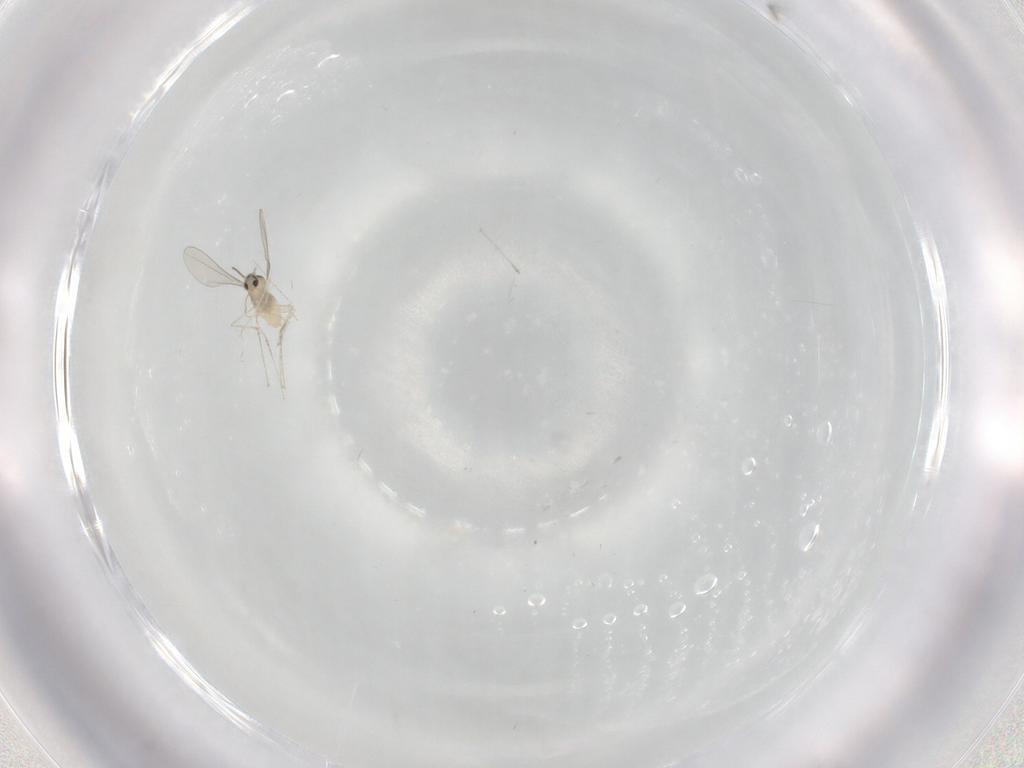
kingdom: Animalia
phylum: Arthropoda
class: Insecta
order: Diptera
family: Cecidomyiidae
